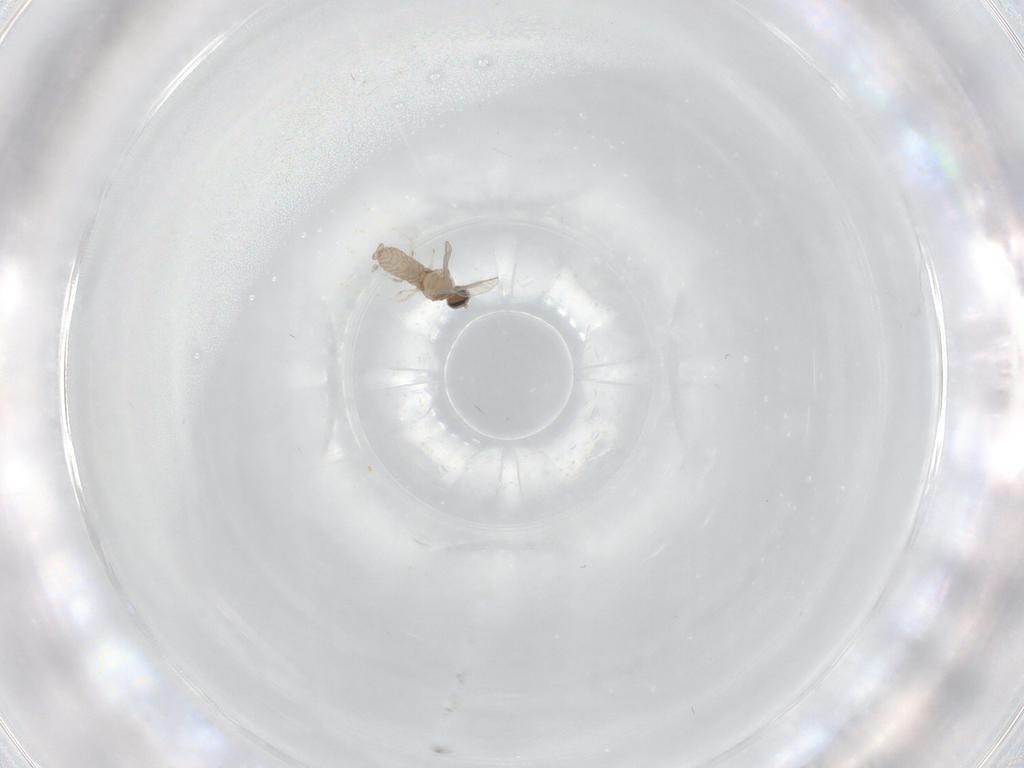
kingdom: Animalia
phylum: Arthropoda
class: Insecta
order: Diptera
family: Chironomidae
